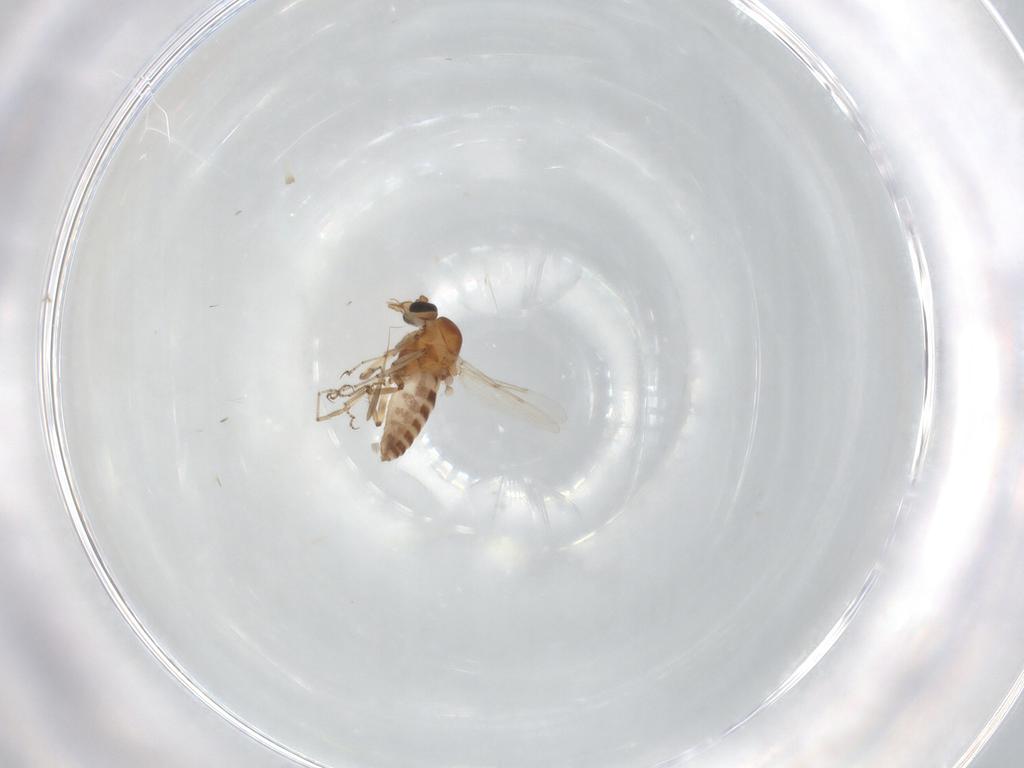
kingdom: Animalia
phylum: Arthropoda
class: Insecta
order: Diptera
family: Ceratopogonidae
